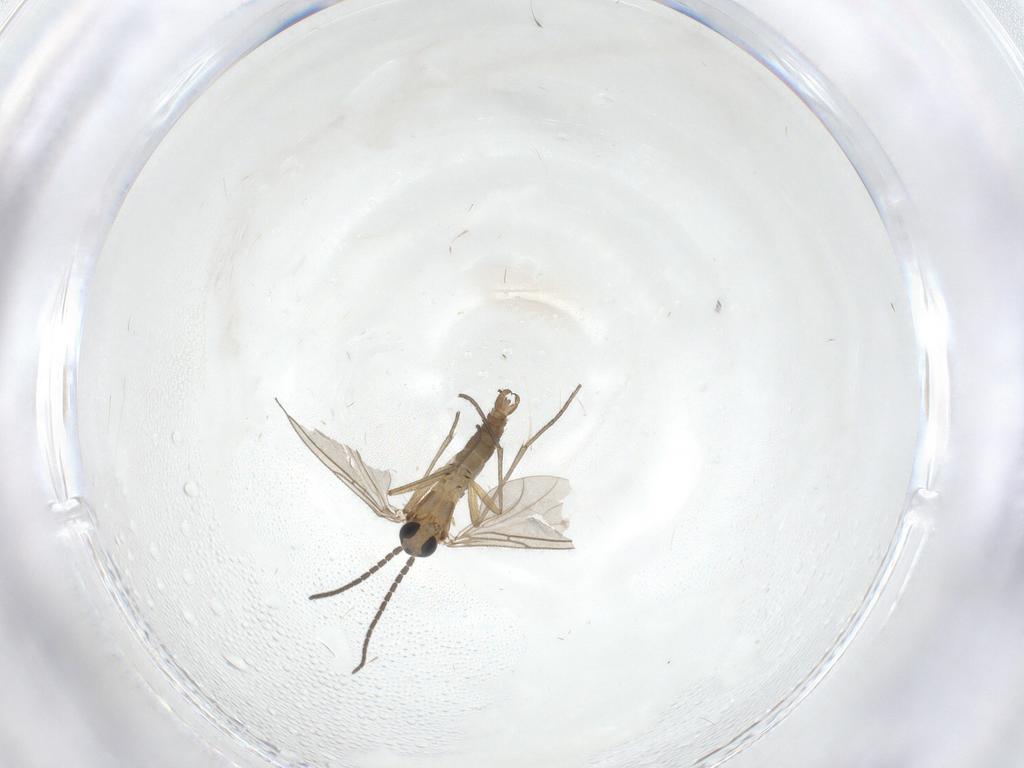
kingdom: Animalia
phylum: Arthropoda
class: Insecta
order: Diptera
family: Sciaridae
